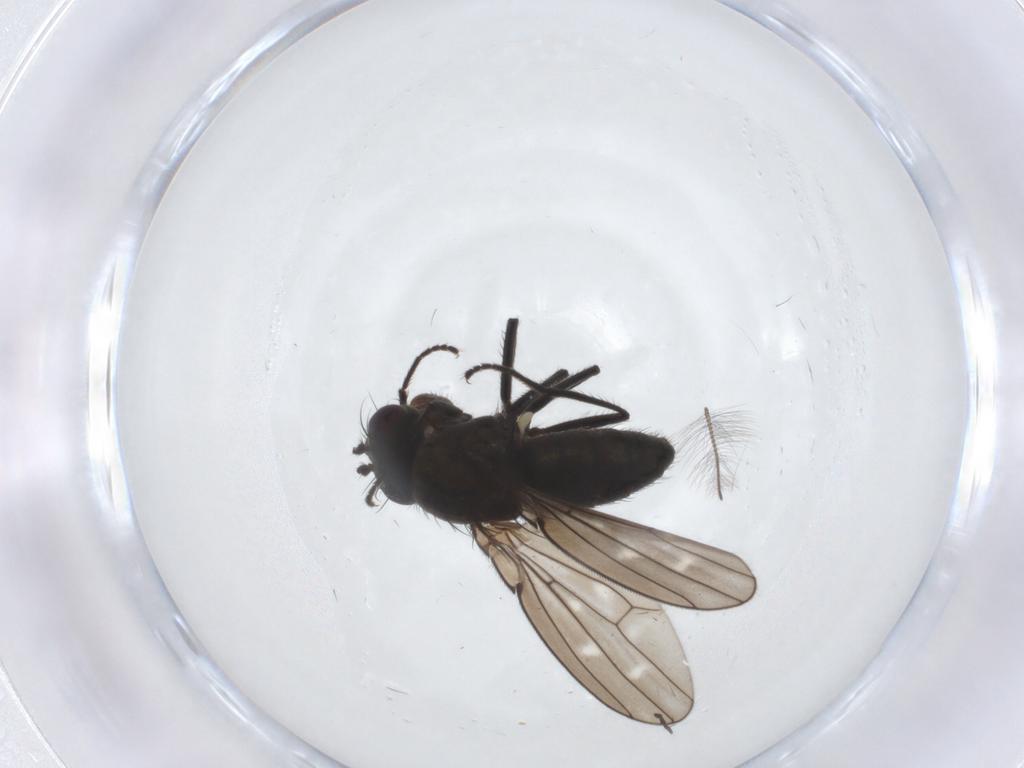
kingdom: Animalia
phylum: Arthropoda
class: Insecta
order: Diptera
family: Ephydridae
